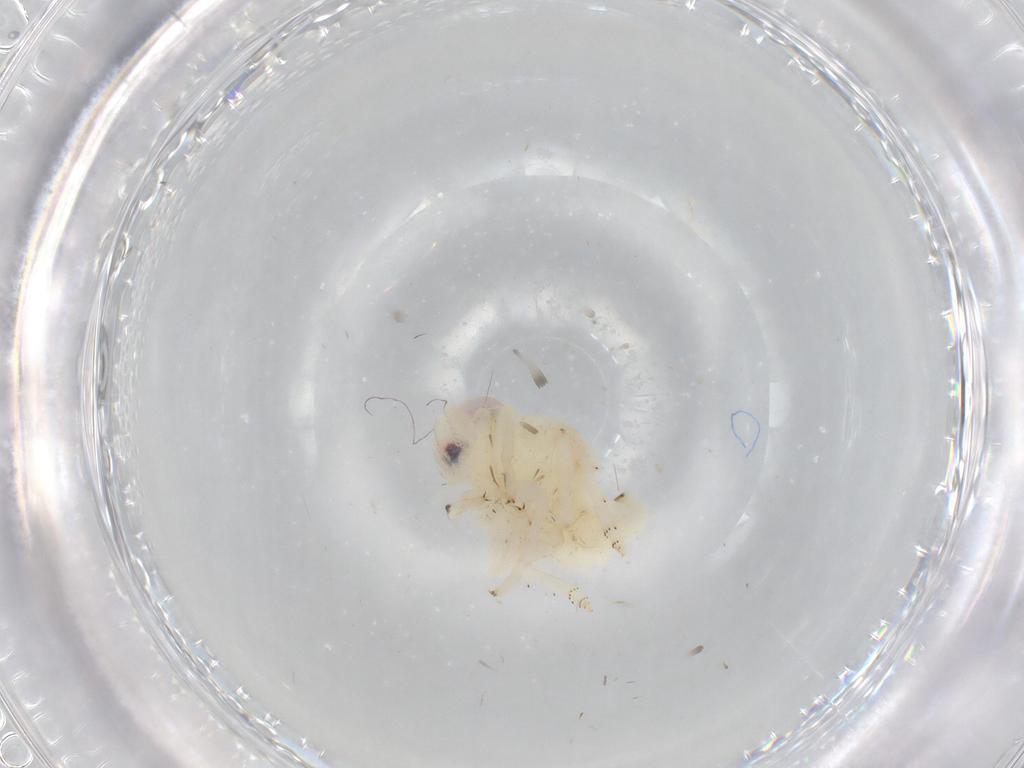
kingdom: Animalia
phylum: Arthropoda
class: Insecta
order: Hemiptera
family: Nogodinidae
